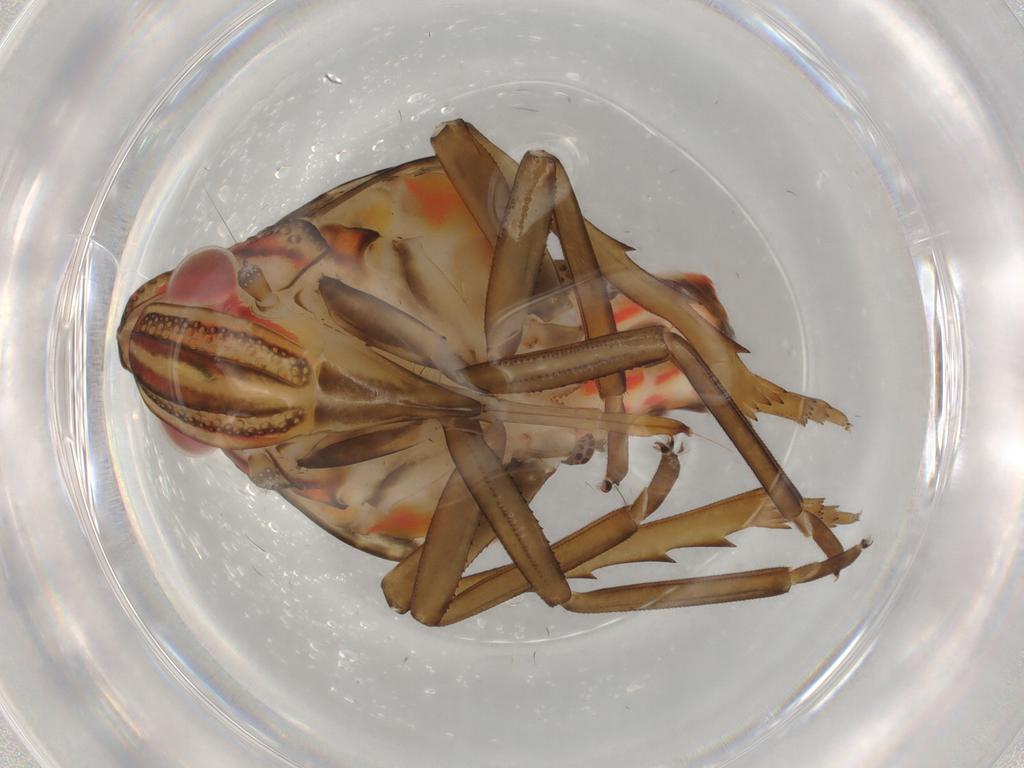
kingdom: Animalia
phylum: Arthropoda
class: Insecta
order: Hemiptera
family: Nogodinidae
